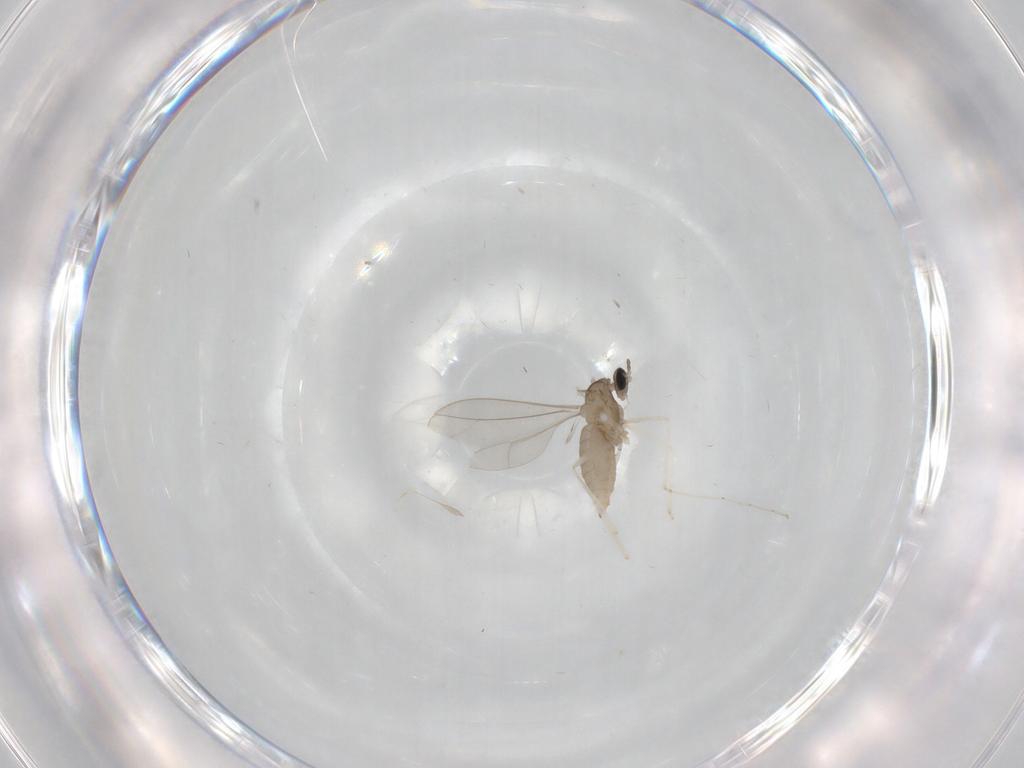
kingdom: Animalia
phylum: Arthropoda
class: Insecta
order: Diptera
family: Cecidomyiidae
